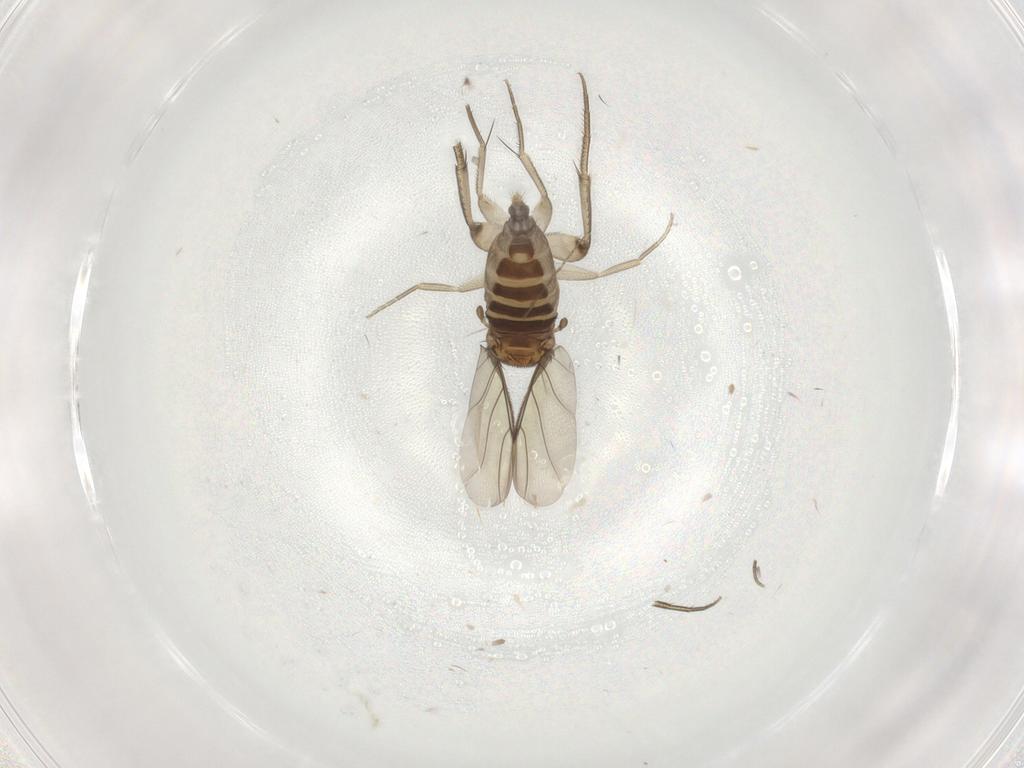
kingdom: Animalia
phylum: Arthropoda
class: Insecta
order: Diptera
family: Phoridae
